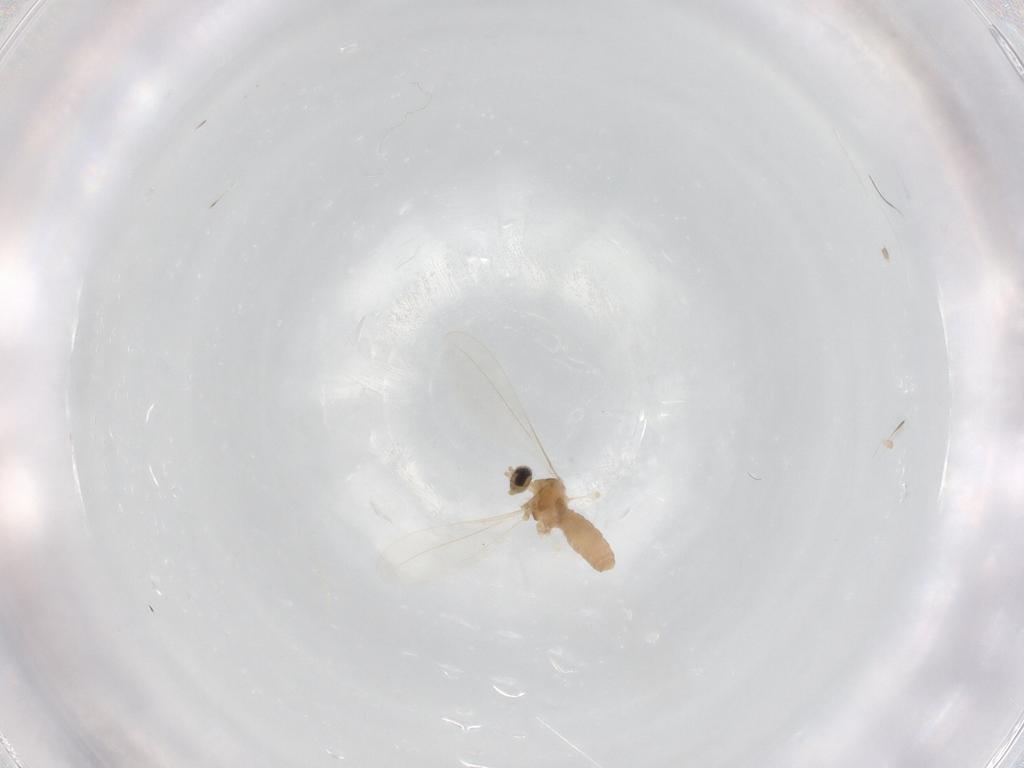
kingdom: Animalia
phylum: Arthropoda
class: Insecta
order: Diptera
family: Cecidomyiidae
